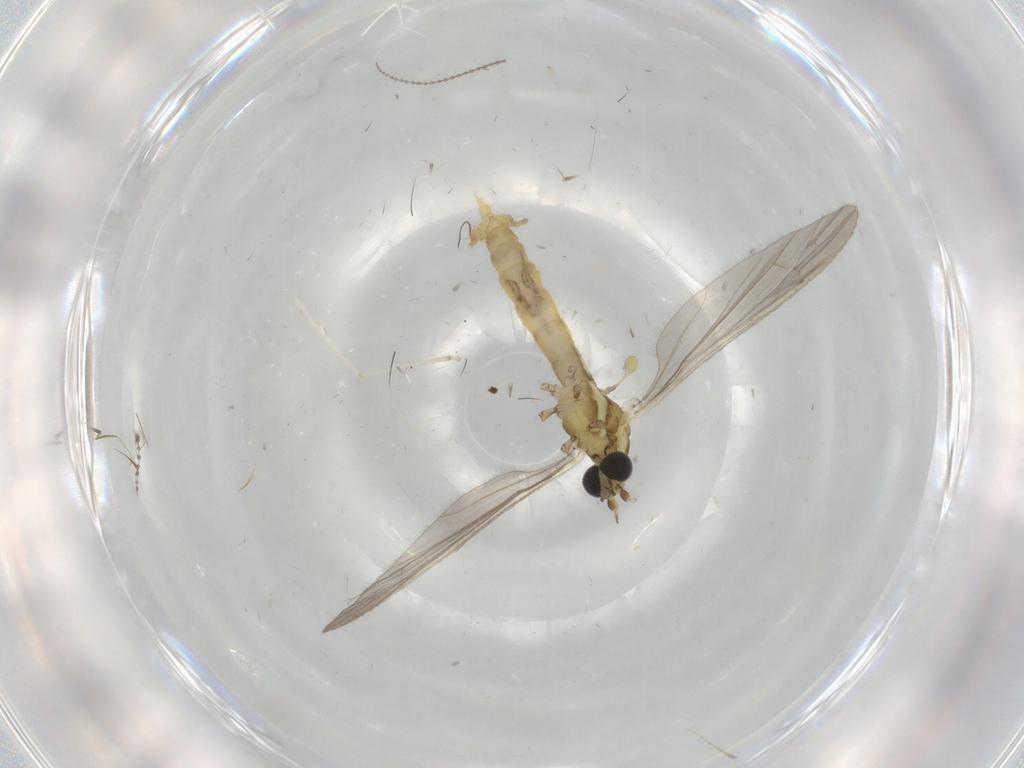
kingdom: Animalia
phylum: Arthropoda
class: Insecta
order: Diptera
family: Limoniidae
